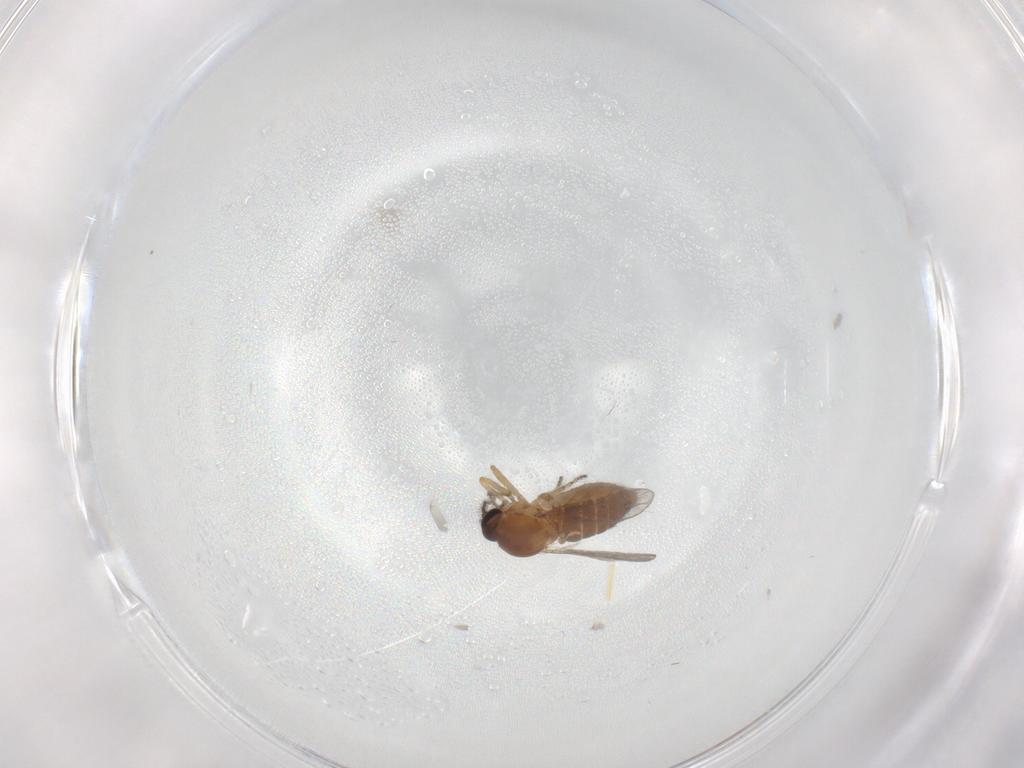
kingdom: Animalia
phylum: Arthropoda
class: Insecta
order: Diptera
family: Ceratopogonidae
